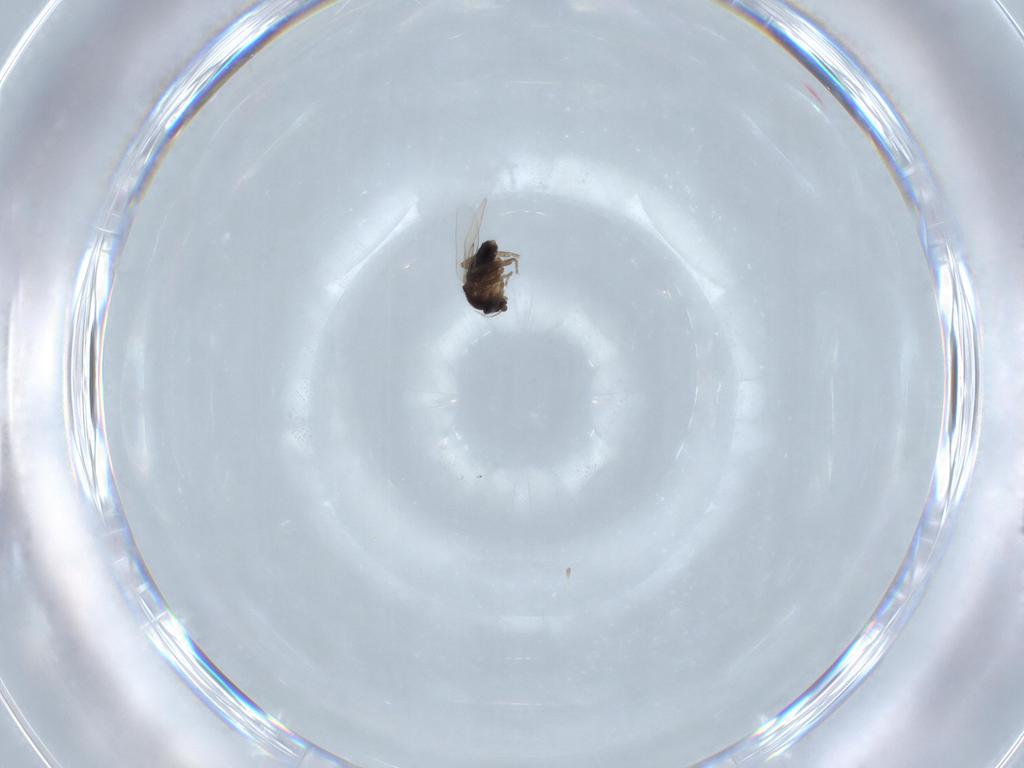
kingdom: Animalia
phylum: Arthropoda
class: Insecta
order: Diptera
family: Phoridae
